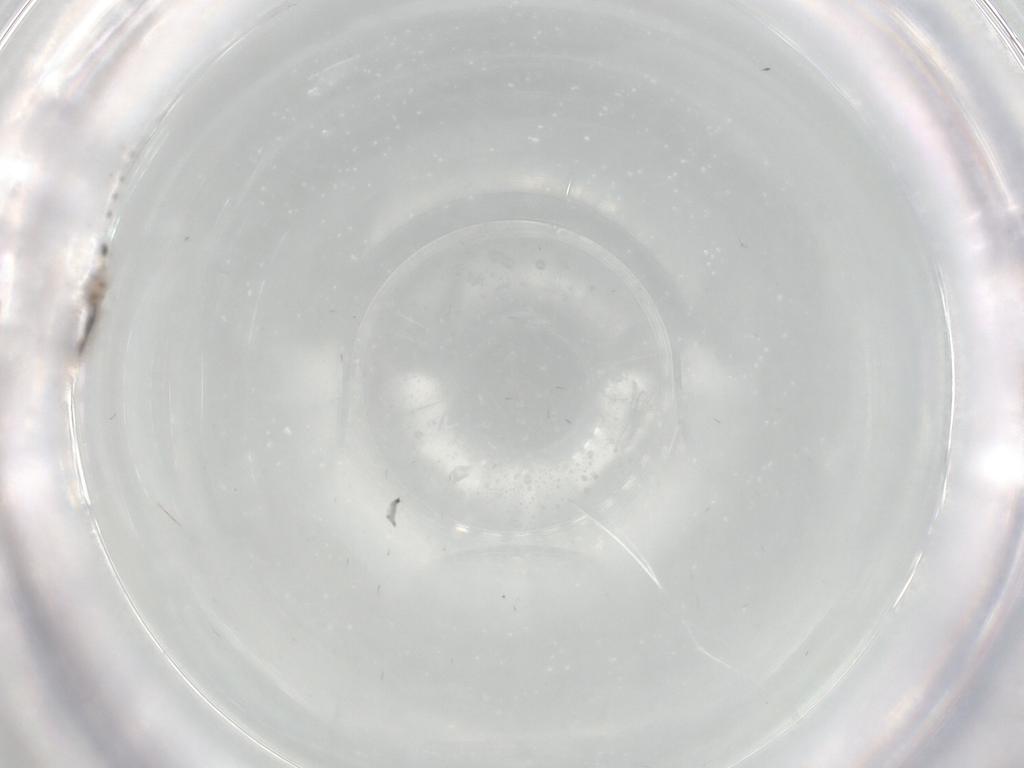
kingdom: Animalia
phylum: Arthropoda
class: Insecta
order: Diptera
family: Cecidomyiidae
